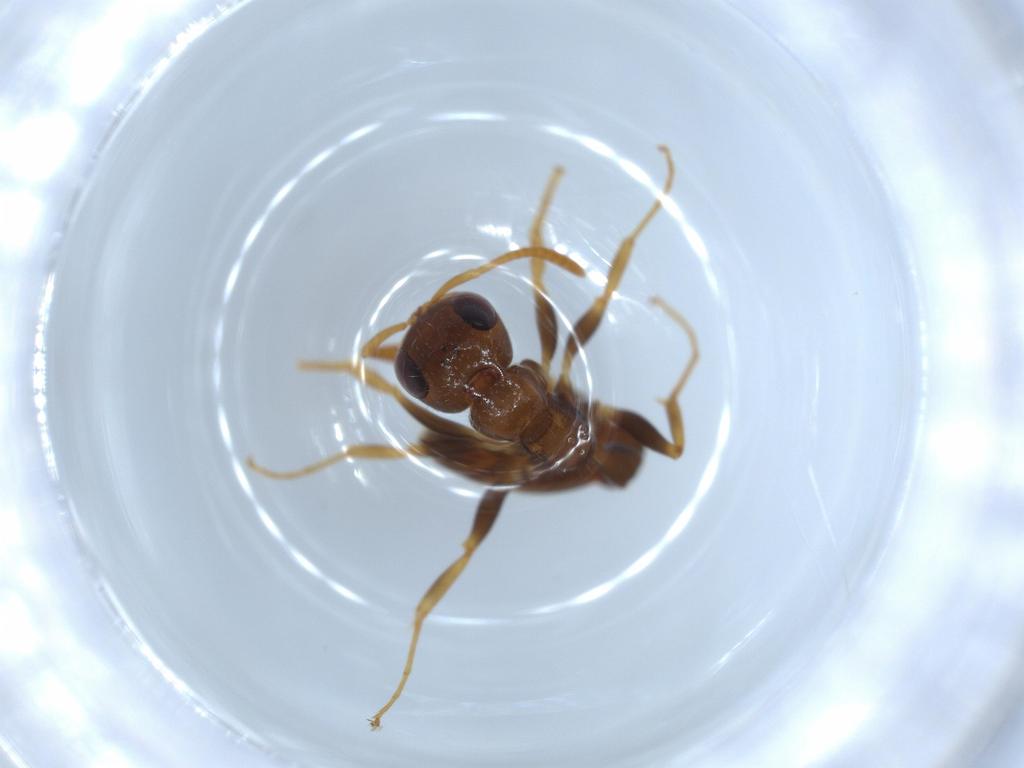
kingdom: Animalia
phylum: Arthropoda
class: Insecta
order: Hymenoptera
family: Formicidae
